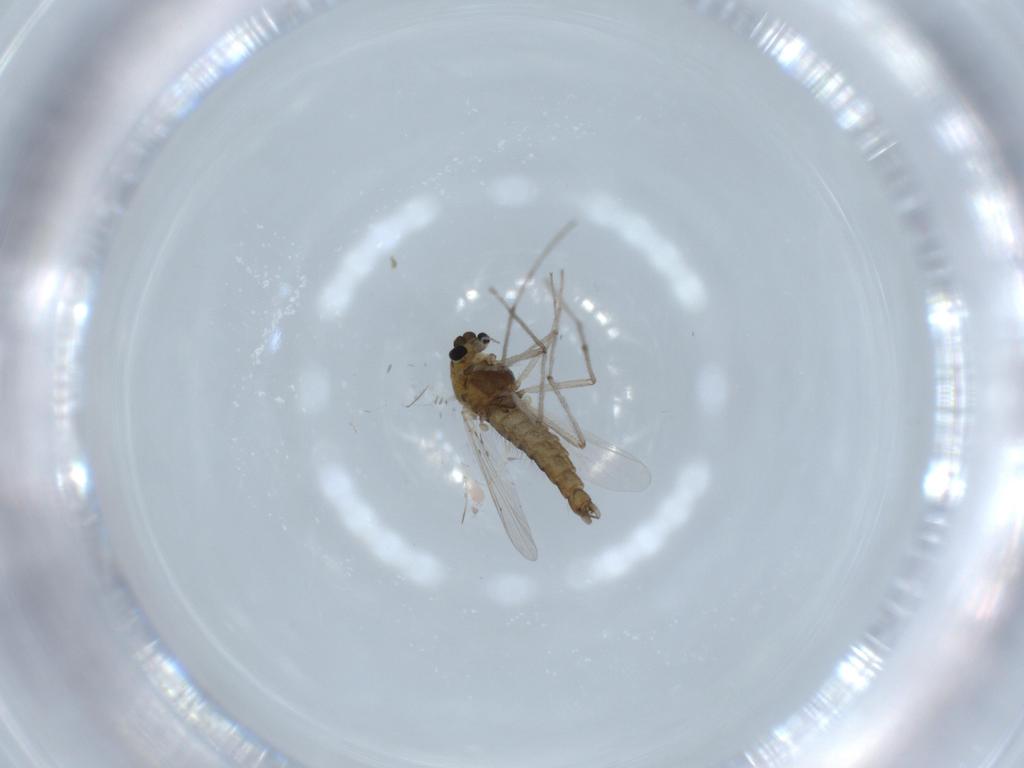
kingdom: Animalia
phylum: Arthropoda
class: Insecta
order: Diptera
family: Chironomidae
